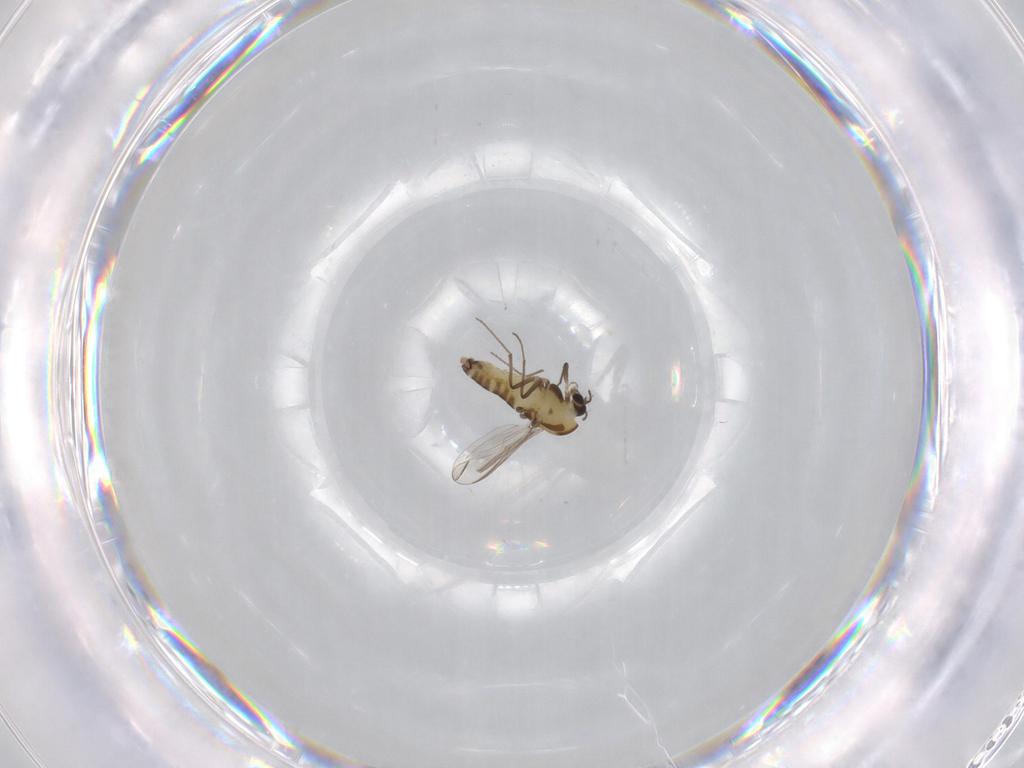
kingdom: Animalia
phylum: Arthropoda
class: Insecta
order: Diptera
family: Chironomidae
